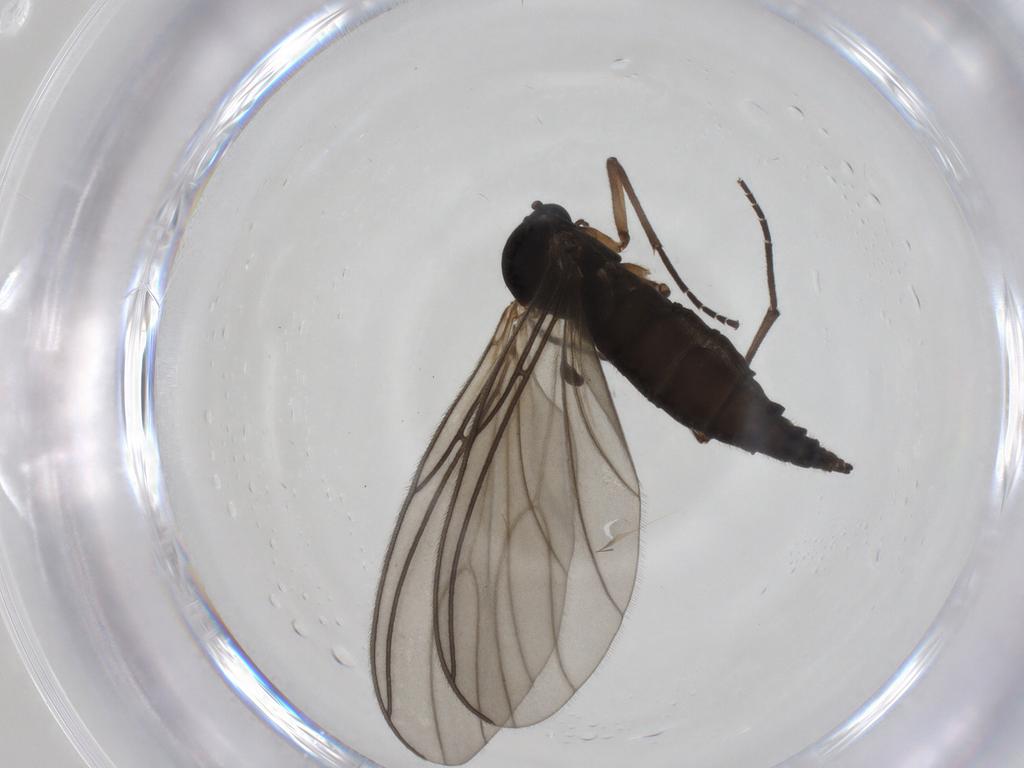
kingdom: Animalia
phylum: Arthropoda
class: Insecta
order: Diptera
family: Sciaridae
